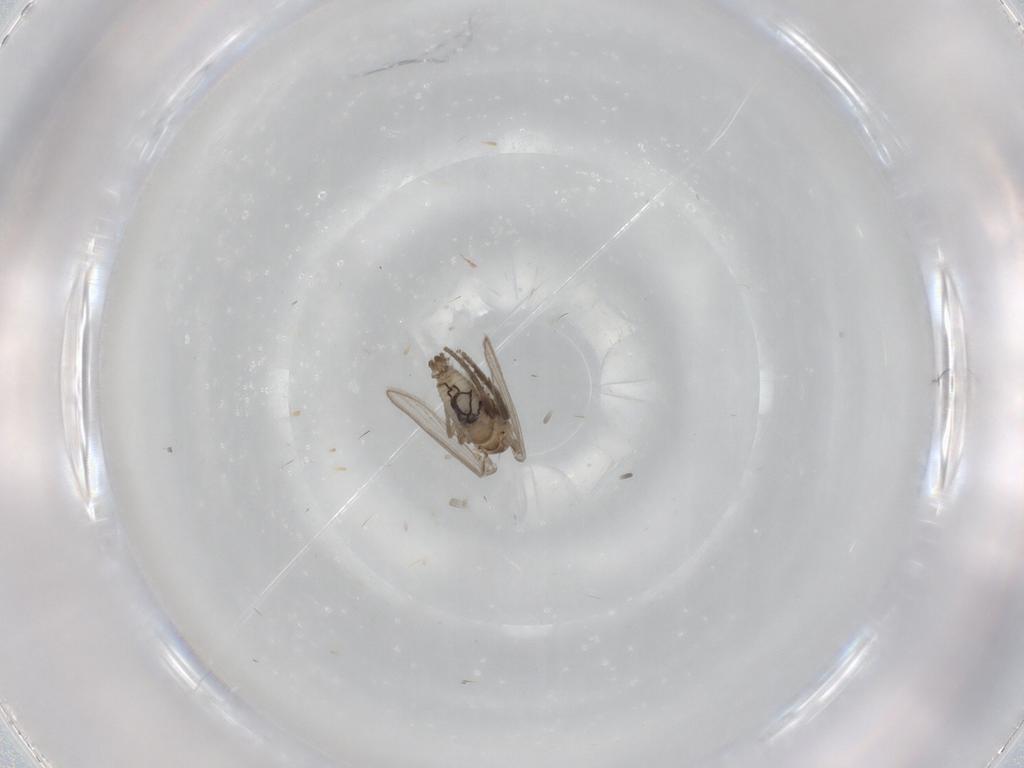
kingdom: Animalia
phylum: Arthropoda
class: Insecta
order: Diptera
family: Psychodidae
